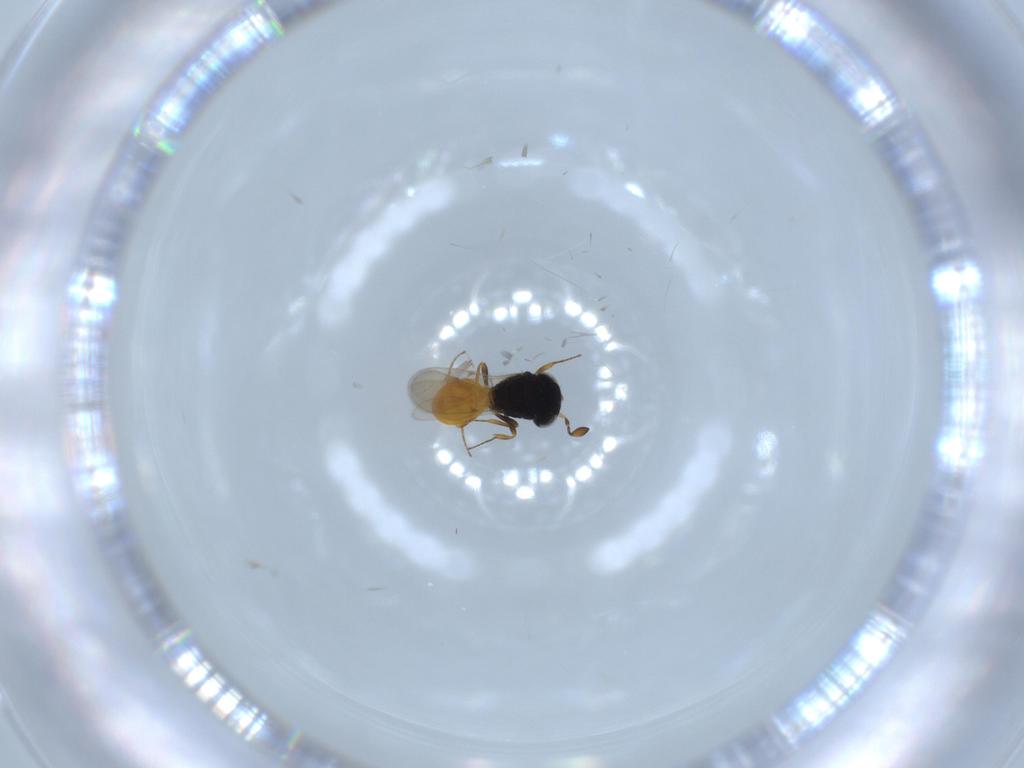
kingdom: Animalia
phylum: Arthropoda
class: Insecta
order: Hymenoptera
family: Scelionidae
